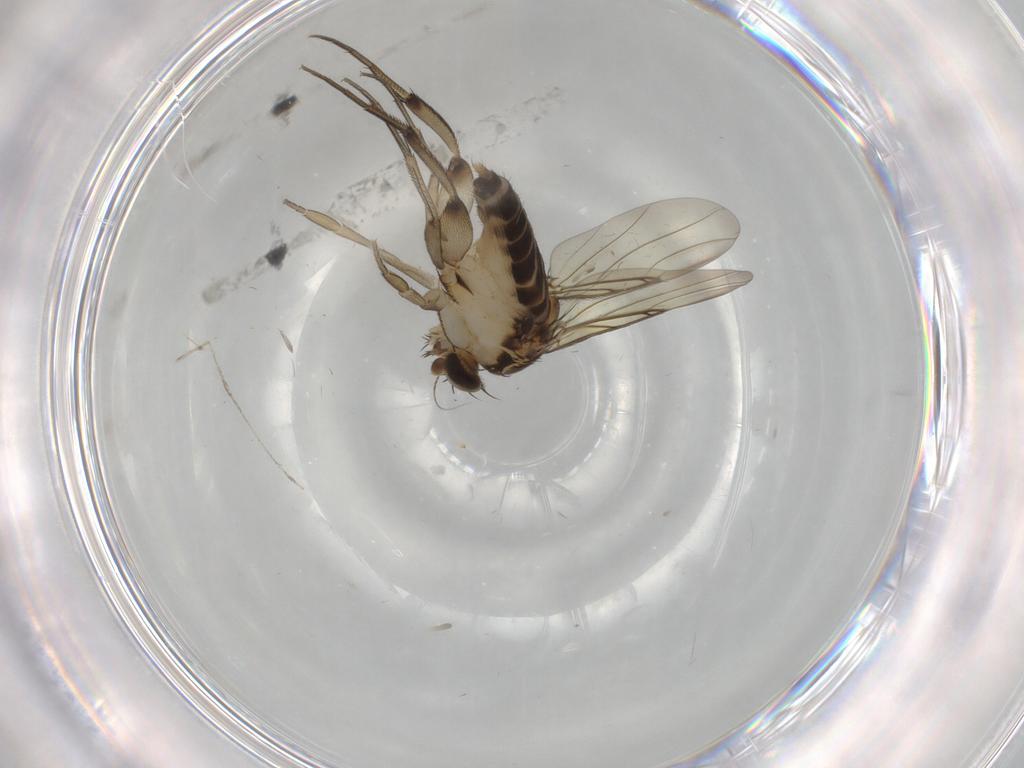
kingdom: Animalia
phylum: Arthropoda
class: Insecta
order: Diptera
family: Phoridae
